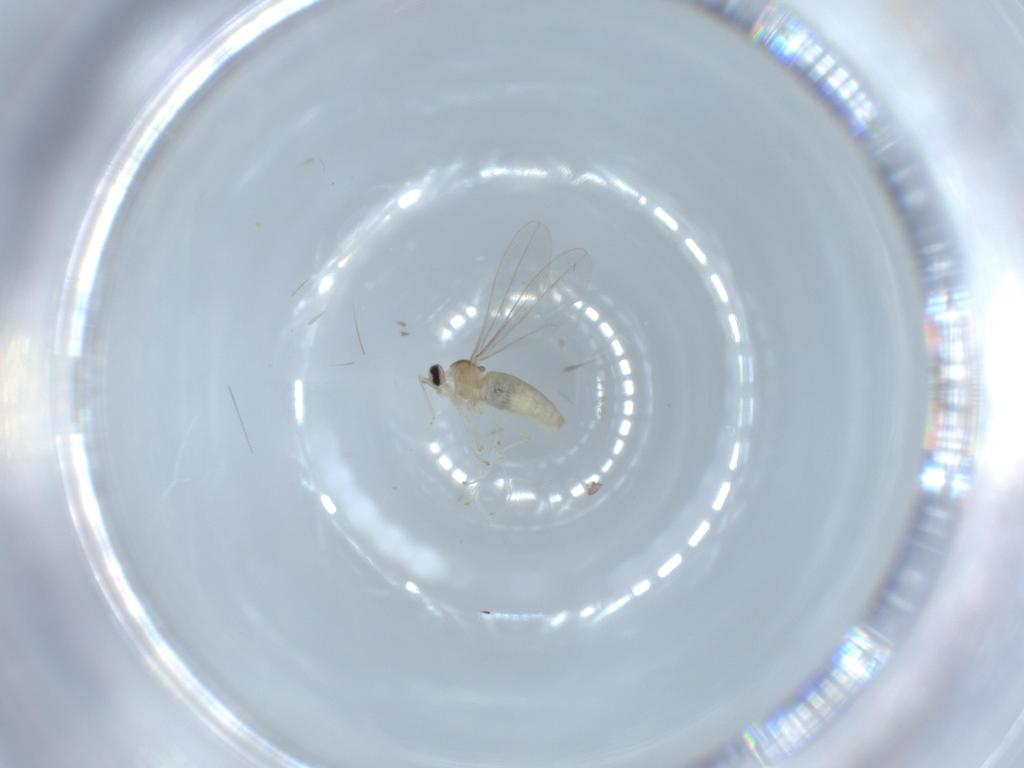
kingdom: Animalia
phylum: Arthropoda
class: Insecta
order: Diptera
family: Cecidomyiidae
